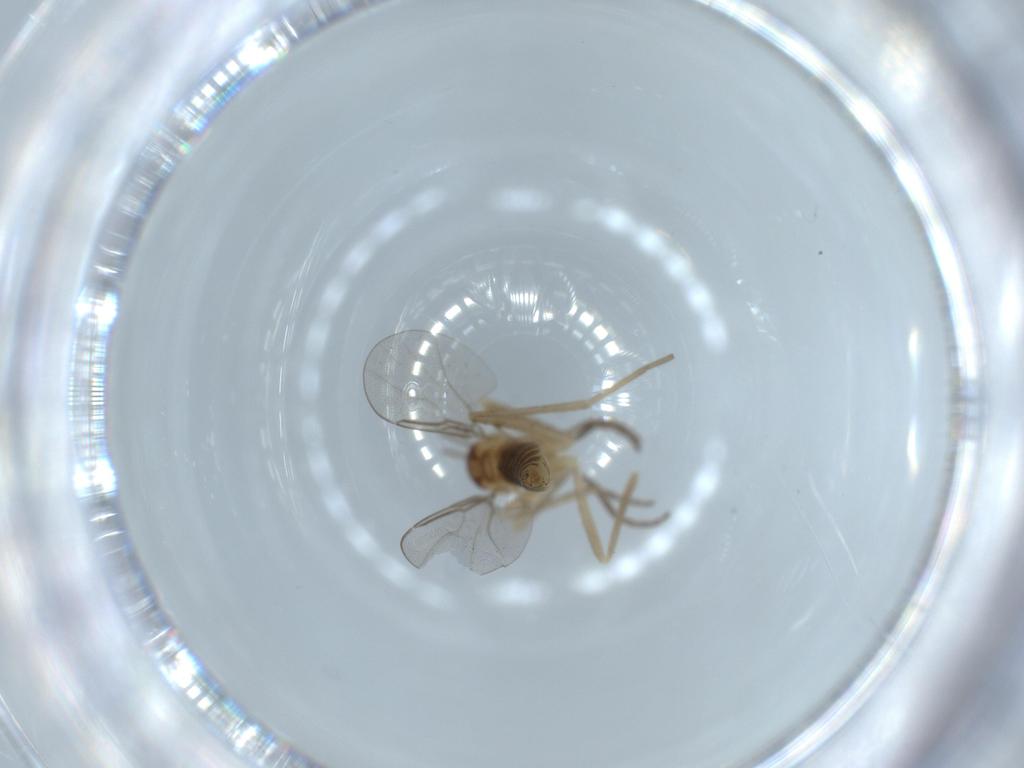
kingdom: Animalia
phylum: Arthropoda
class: Insecta
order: Diptera
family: Cecidomyiidae
